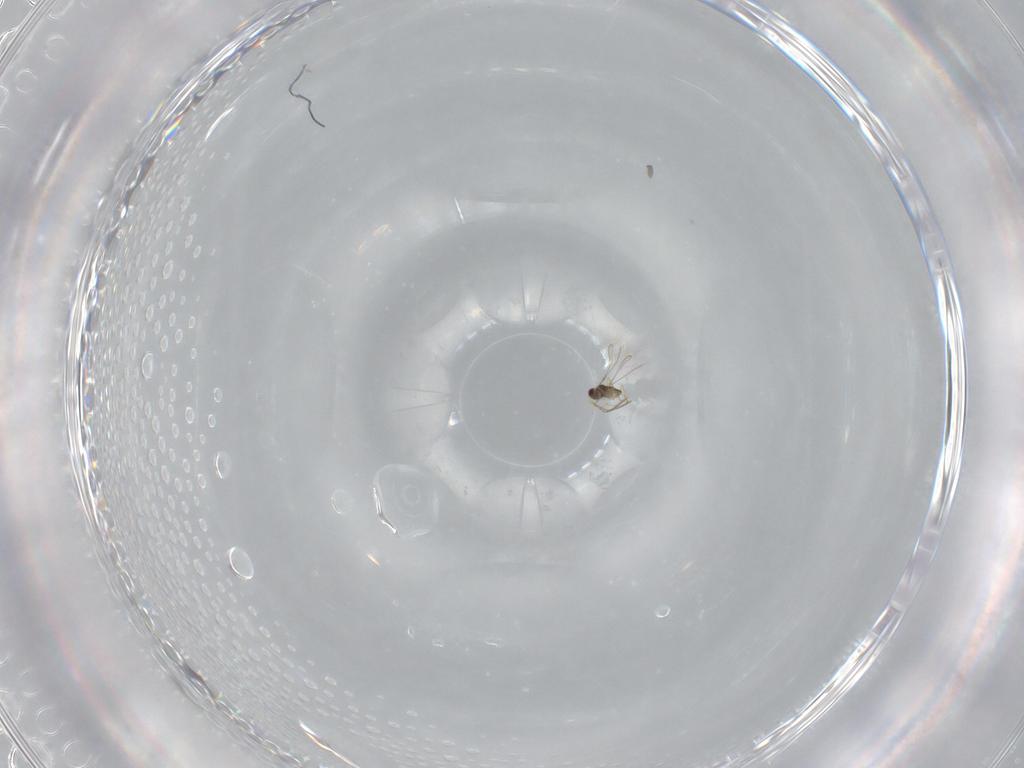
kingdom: Animalia
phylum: Arthropoda
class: Insecta
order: Hymenoptera
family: Mymaridae
